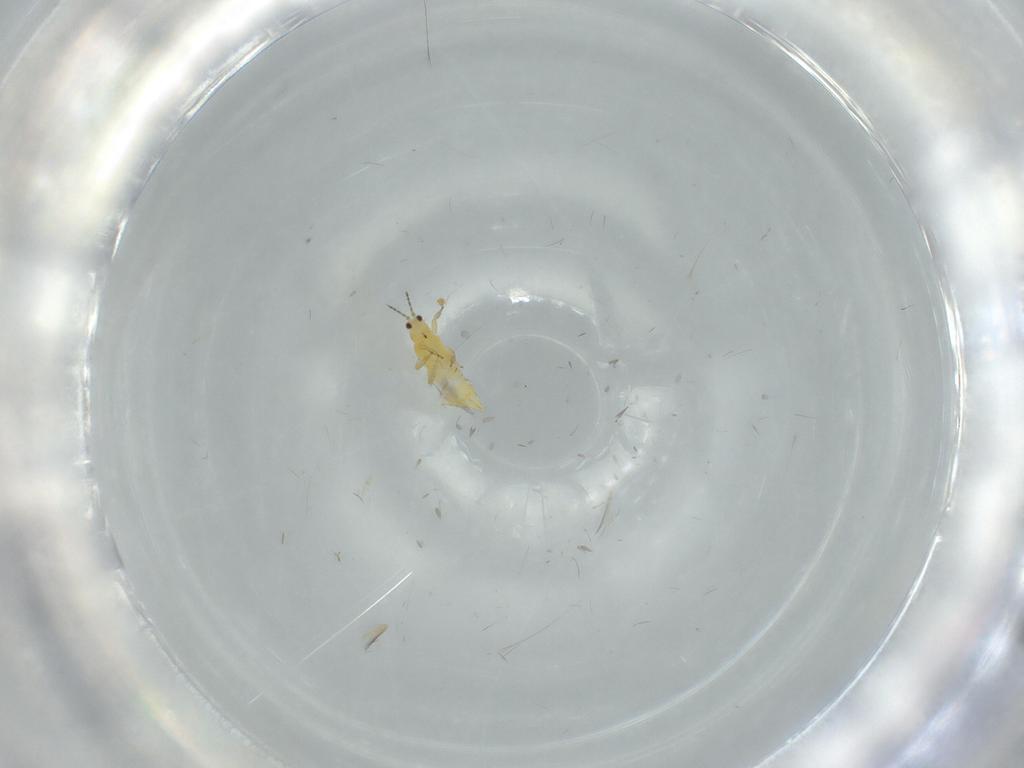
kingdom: Animalia
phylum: Arthropoda
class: Insecta
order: Thysanoptera
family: Thripidae
